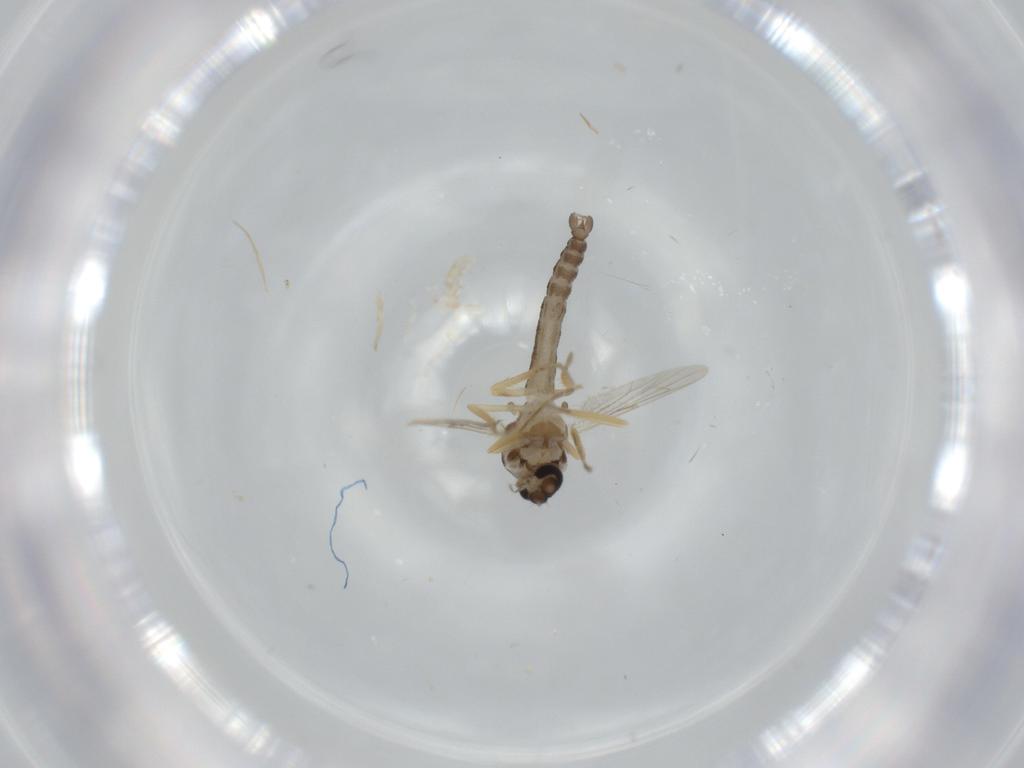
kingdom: Animalia
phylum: Arthropoda
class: Insecta
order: Diptera
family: Ceratopogonidae
